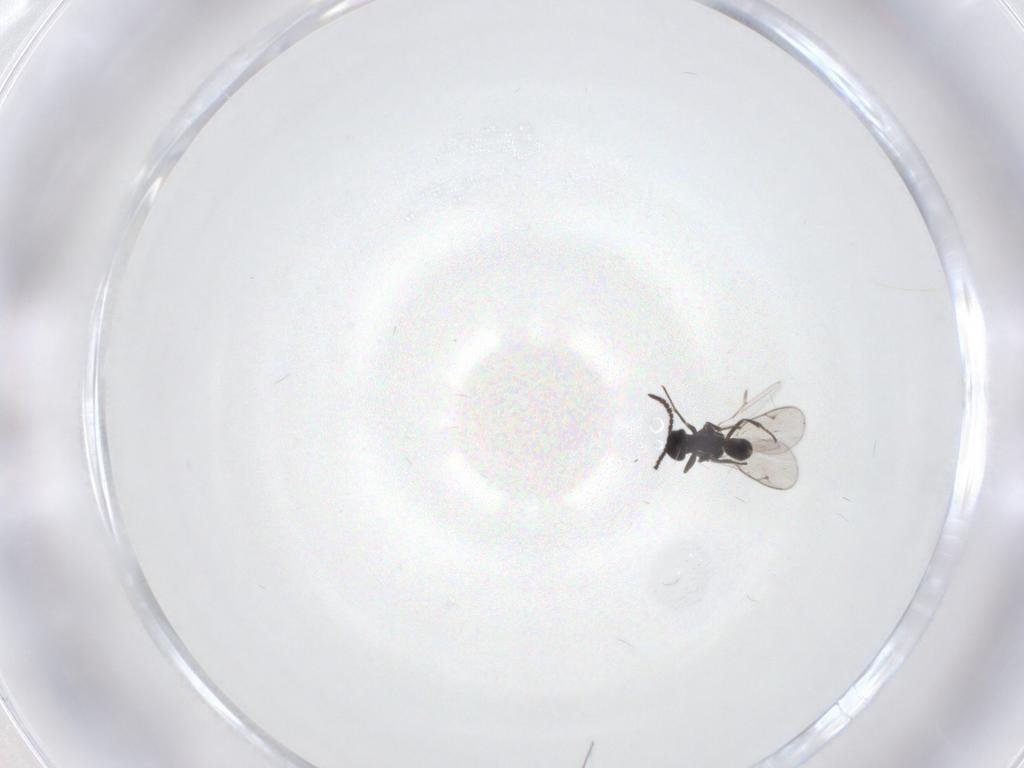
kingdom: Animalia
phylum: Arthropoda
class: Insecta
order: Hymenoptera
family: Eupelmidae
